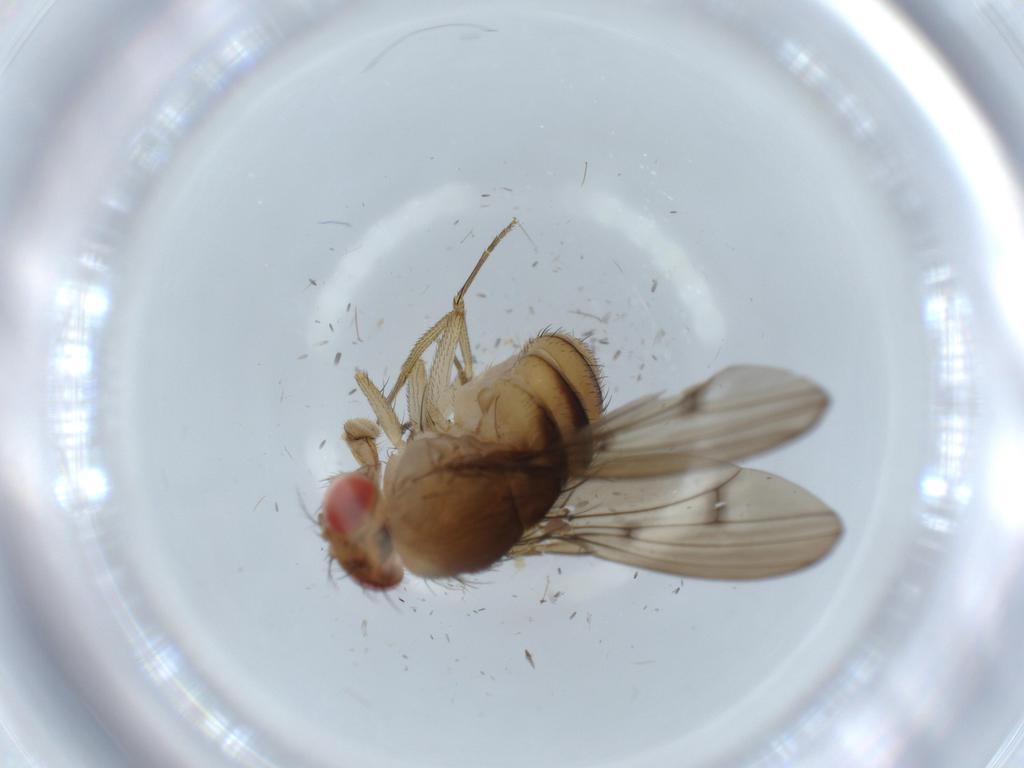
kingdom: Animalia
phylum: Arthropoda
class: Insecta
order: Diptera
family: Drosophilidae
